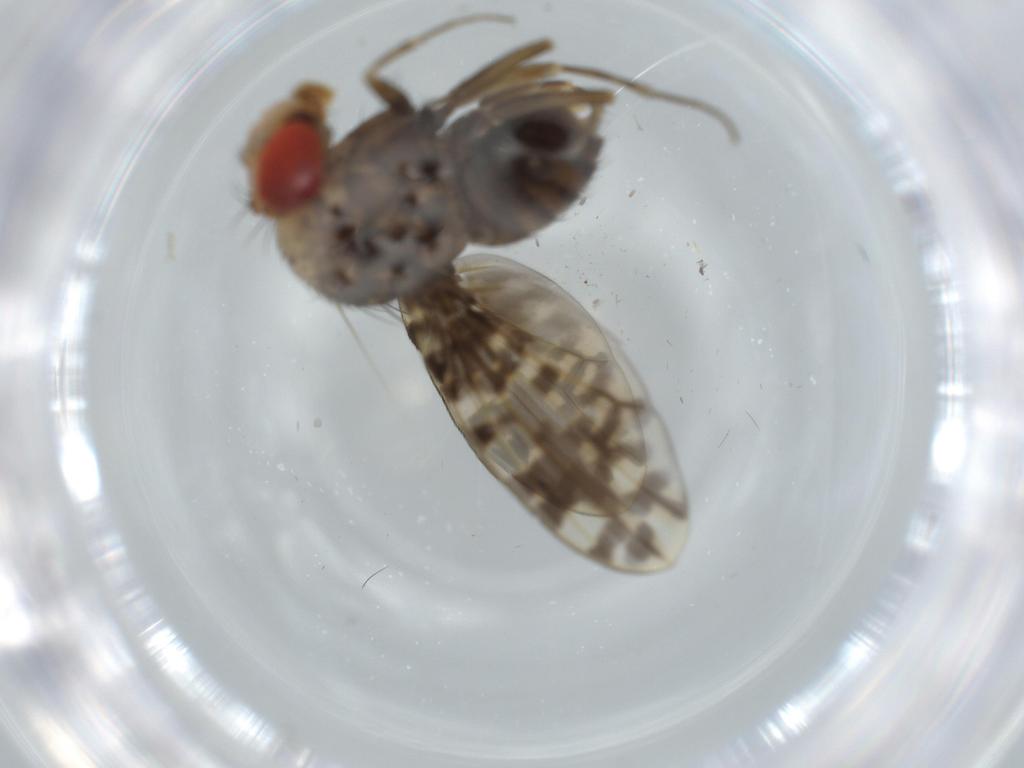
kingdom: Animalia
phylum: Arthropoda
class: Insecta
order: Diptera
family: Drosophilidae
